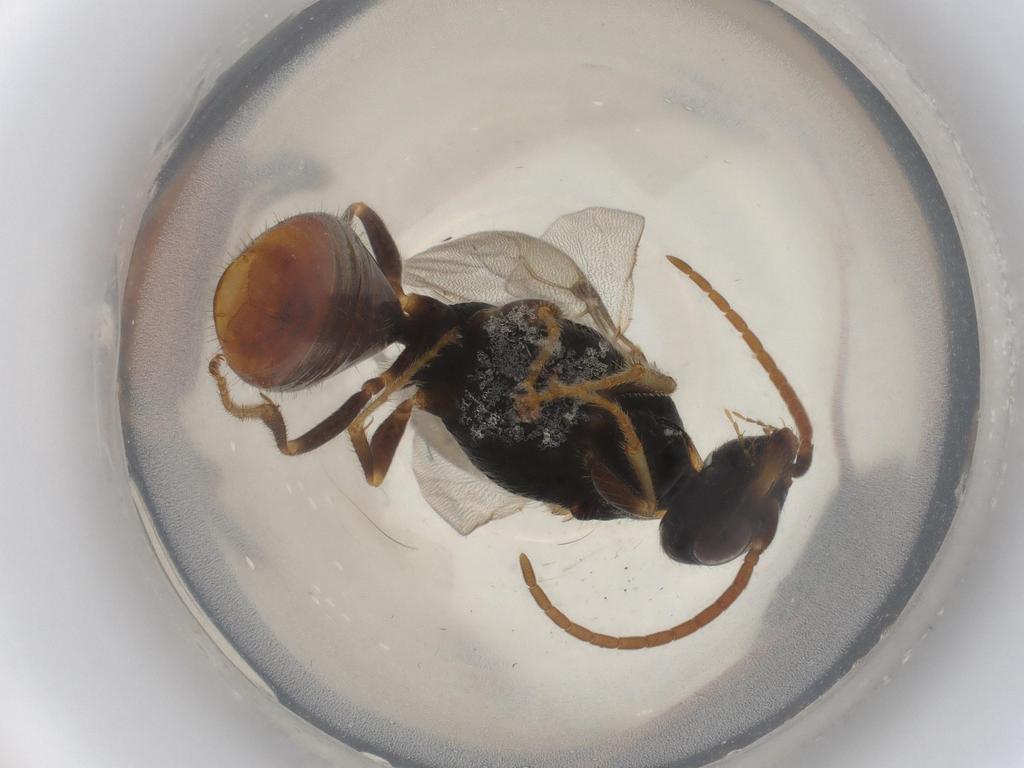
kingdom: Animalia
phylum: Arthropoda
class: Insecta
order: Hymenoptera
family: Bethylidae
